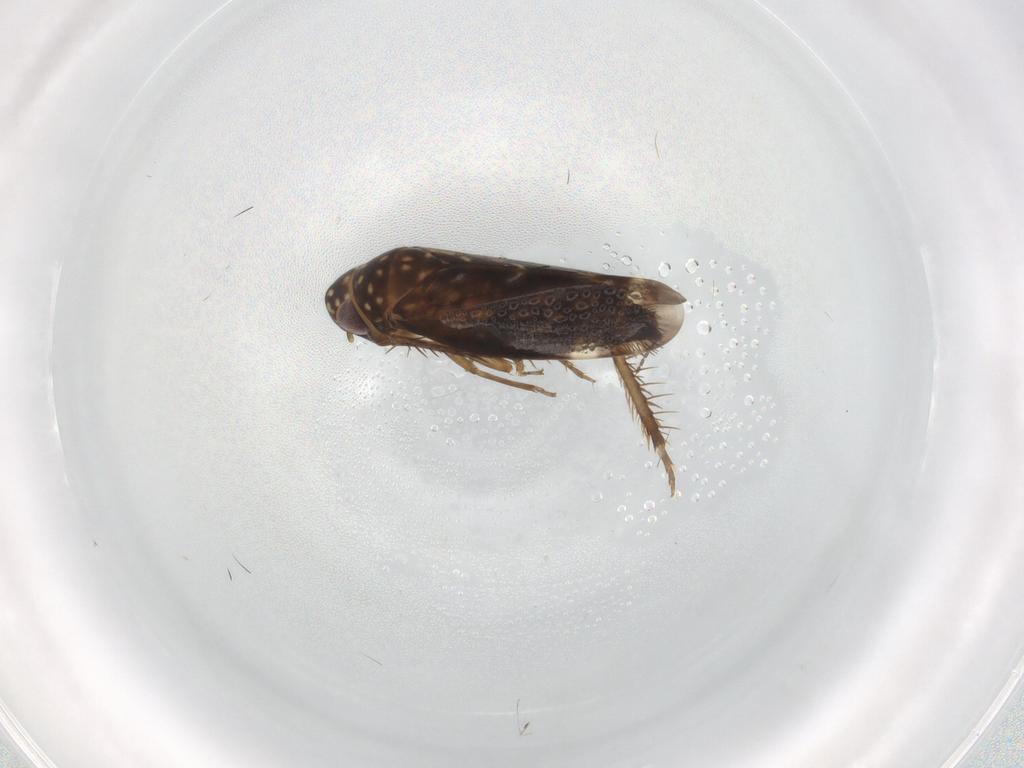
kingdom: Animalia
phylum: Arthropoda
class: Insecta
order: Hemiptera
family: Cicadellidae
